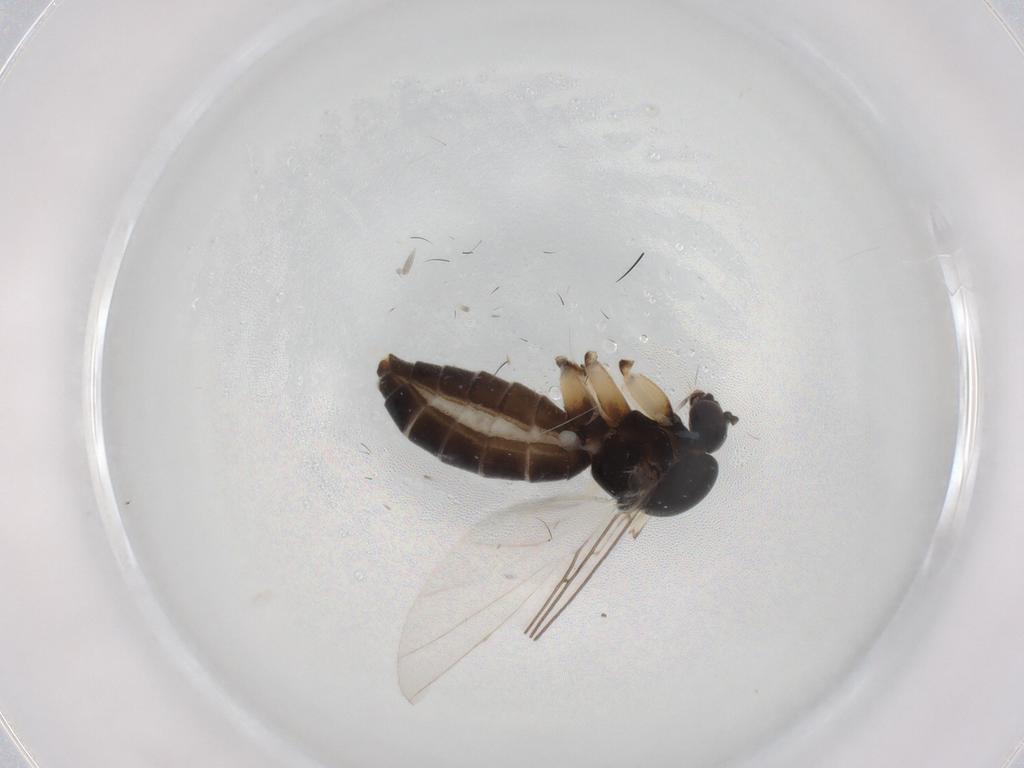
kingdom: Animalia
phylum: Arthropoda
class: Insecta
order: Diptera
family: Mycetophilidae
